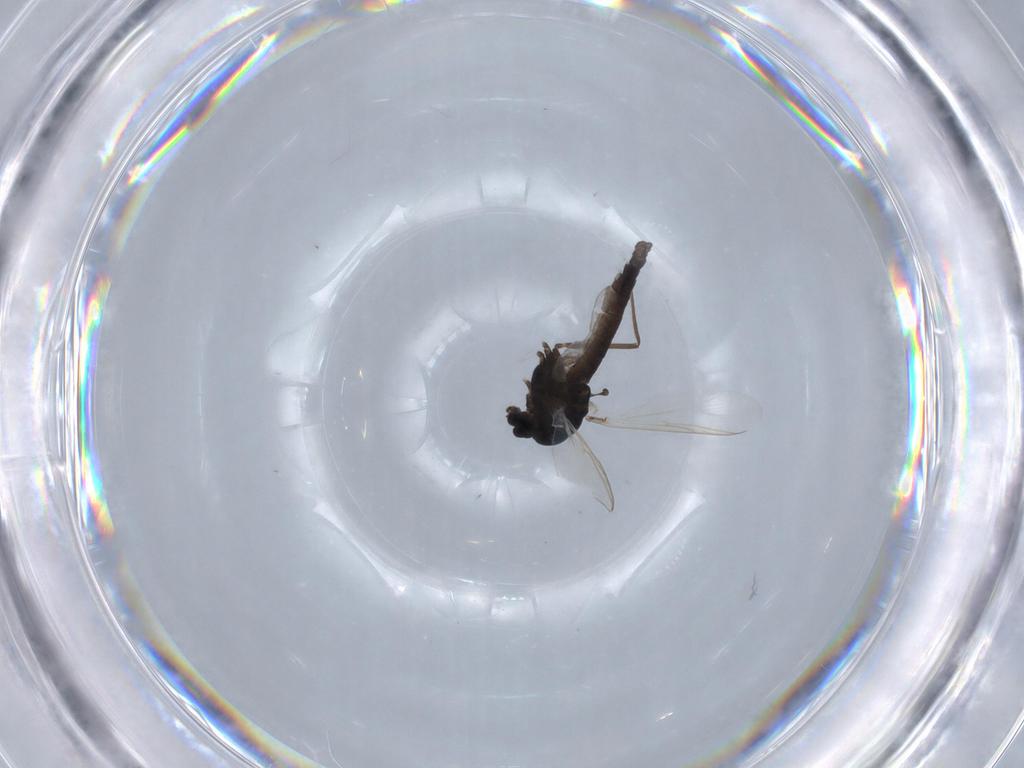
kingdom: Animalia
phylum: Arthropoda
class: Insecta
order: Diptera
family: Chironomidae
